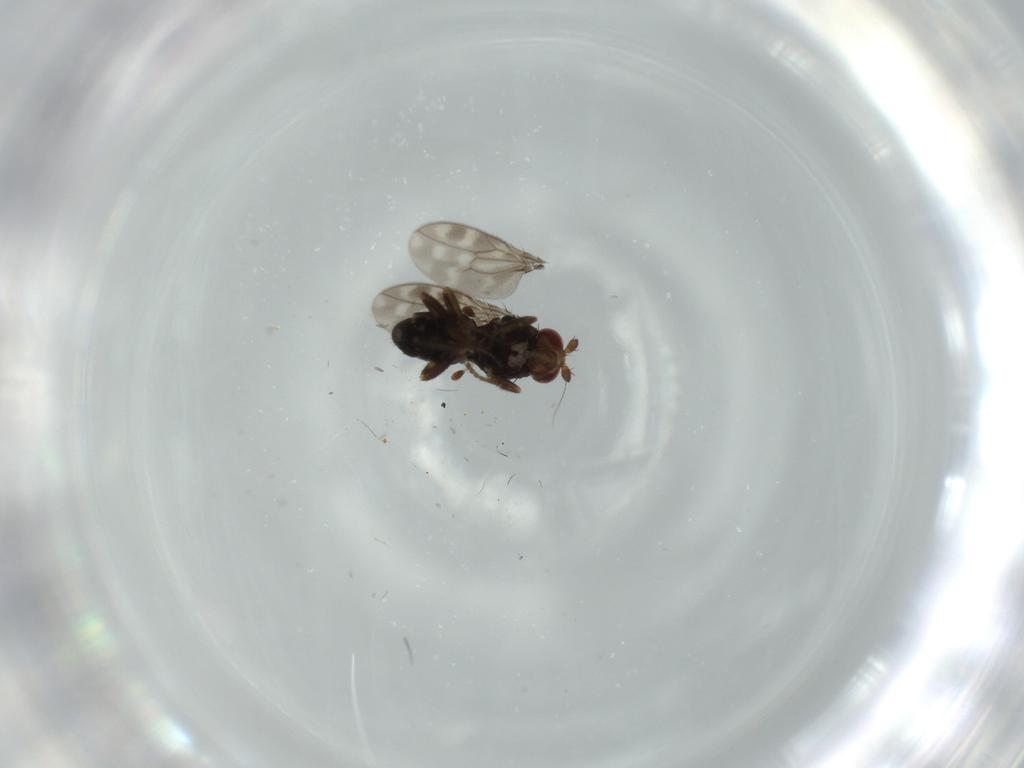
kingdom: Animalia
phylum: Arthropoda
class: Insecta
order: Diptera
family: Sphaeroceridae
